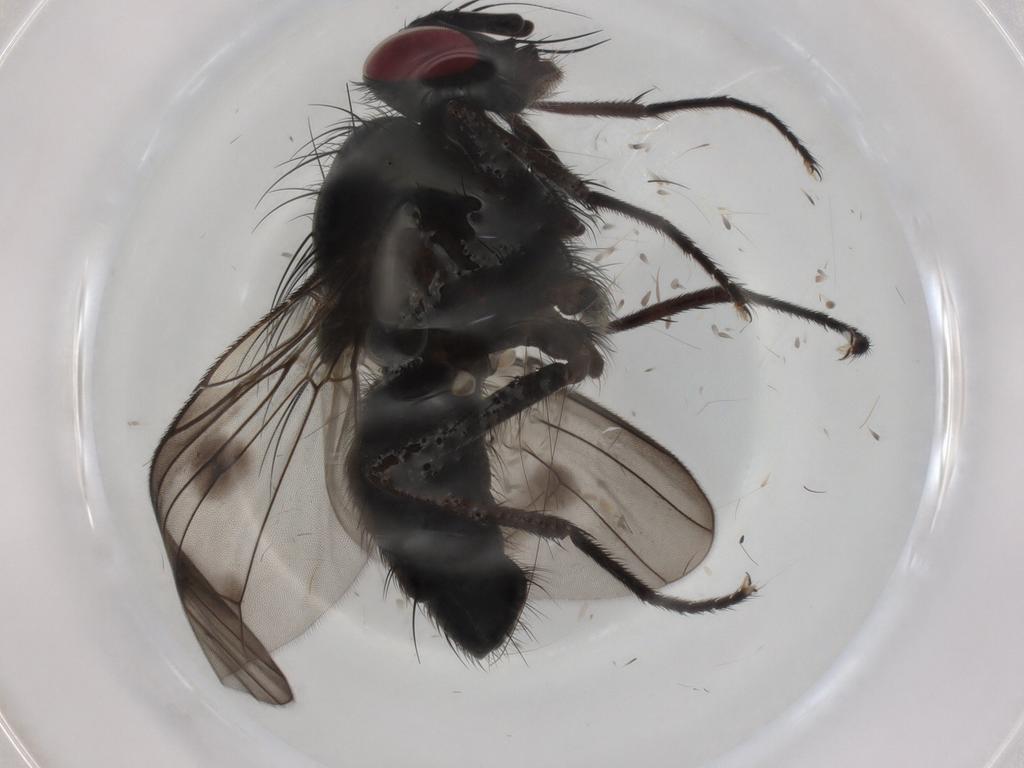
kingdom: Animalia
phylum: Arthropoda
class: Insecta
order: Diptera
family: Muscidae
